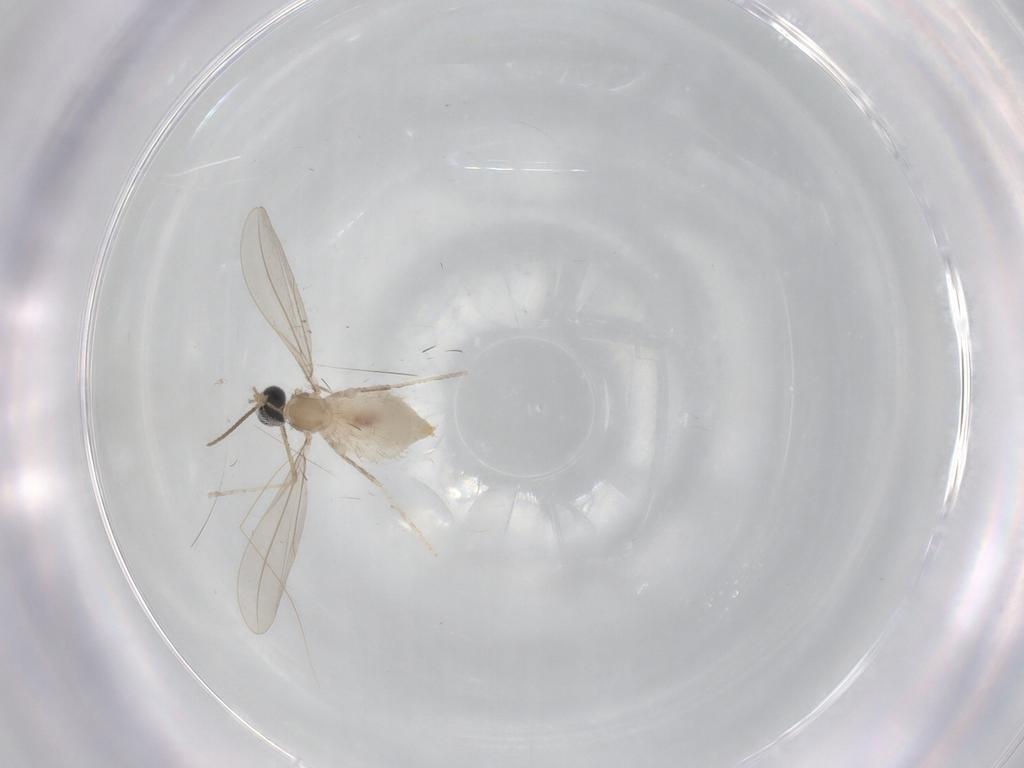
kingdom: Animalia
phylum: Arthropoda
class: Insecta
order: Diptera
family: Cecidomyiidae
